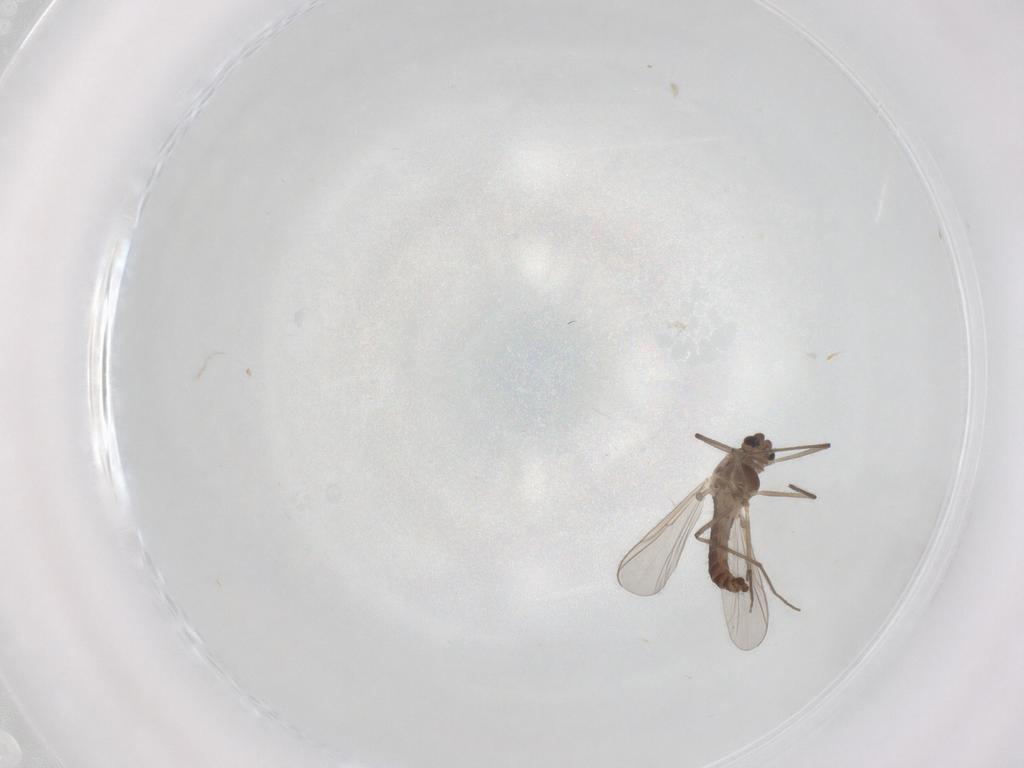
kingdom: Animalia
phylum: Arthropoda
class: Insecta
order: Diptera
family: Chironomidae
